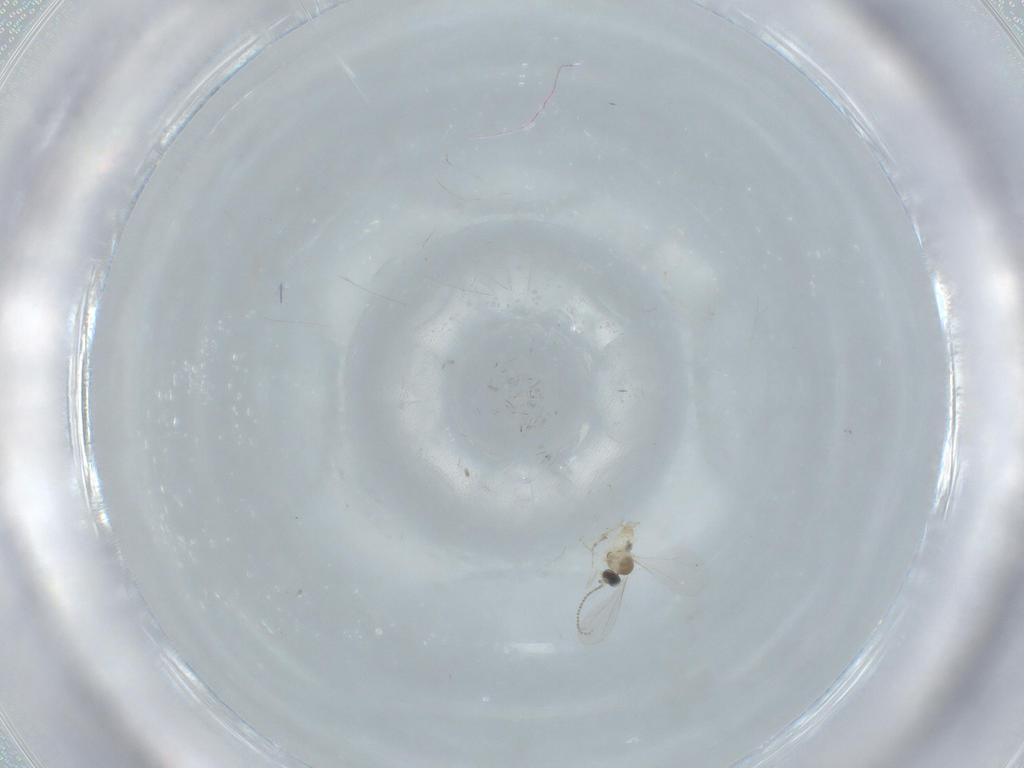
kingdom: Animalia
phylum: Arthropoda
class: Insecta
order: Diptera
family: Cecidomyiidae
